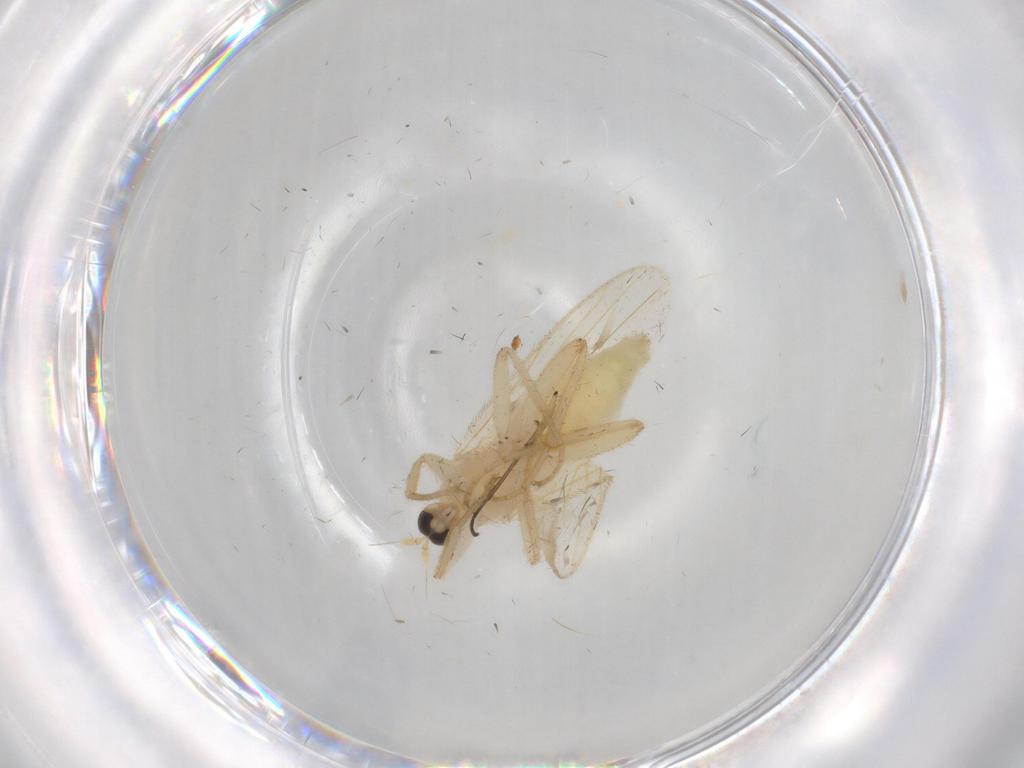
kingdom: Animalia
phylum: Arthropoda
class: Insecta
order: Diptera
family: Hybotidae
